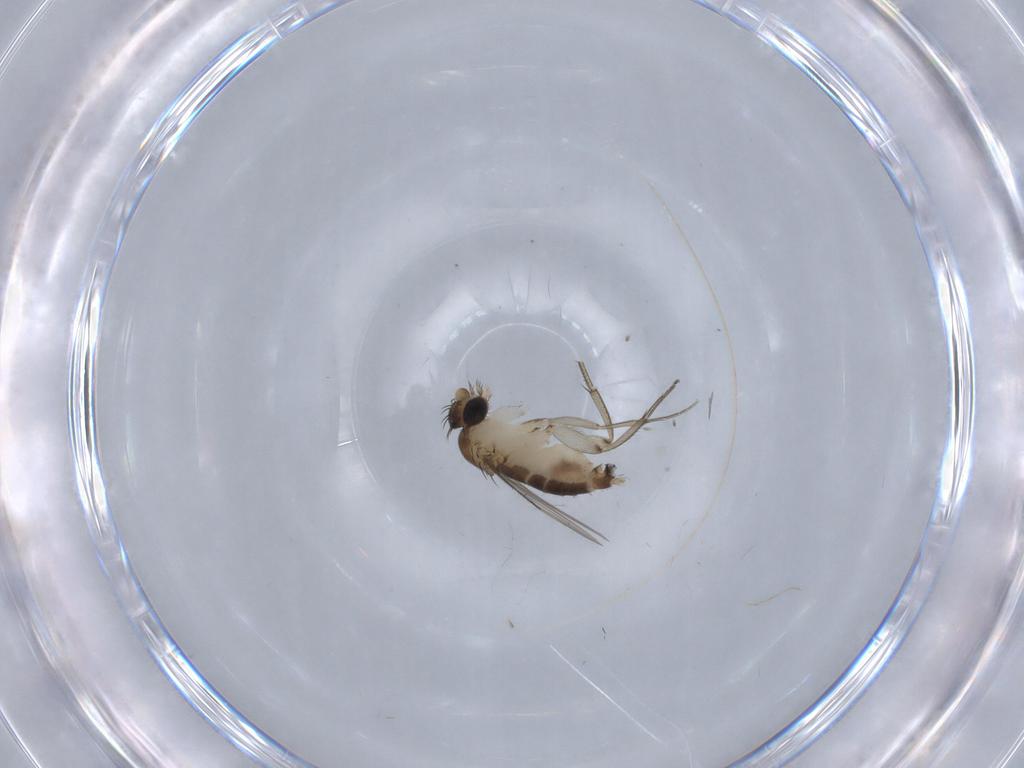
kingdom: Animalia
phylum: Arthropoda
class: Insecta
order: Diptera
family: Phoridae
